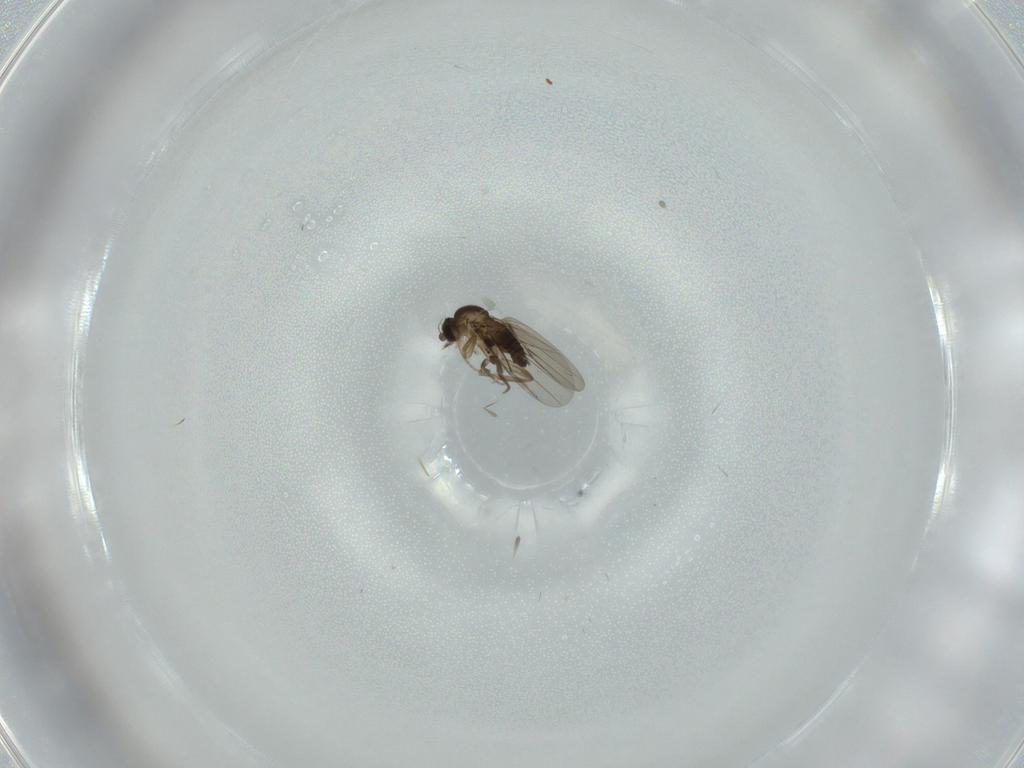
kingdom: Animalia
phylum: Arthropoda
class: Insecta
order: Diptera
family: Phoridae
